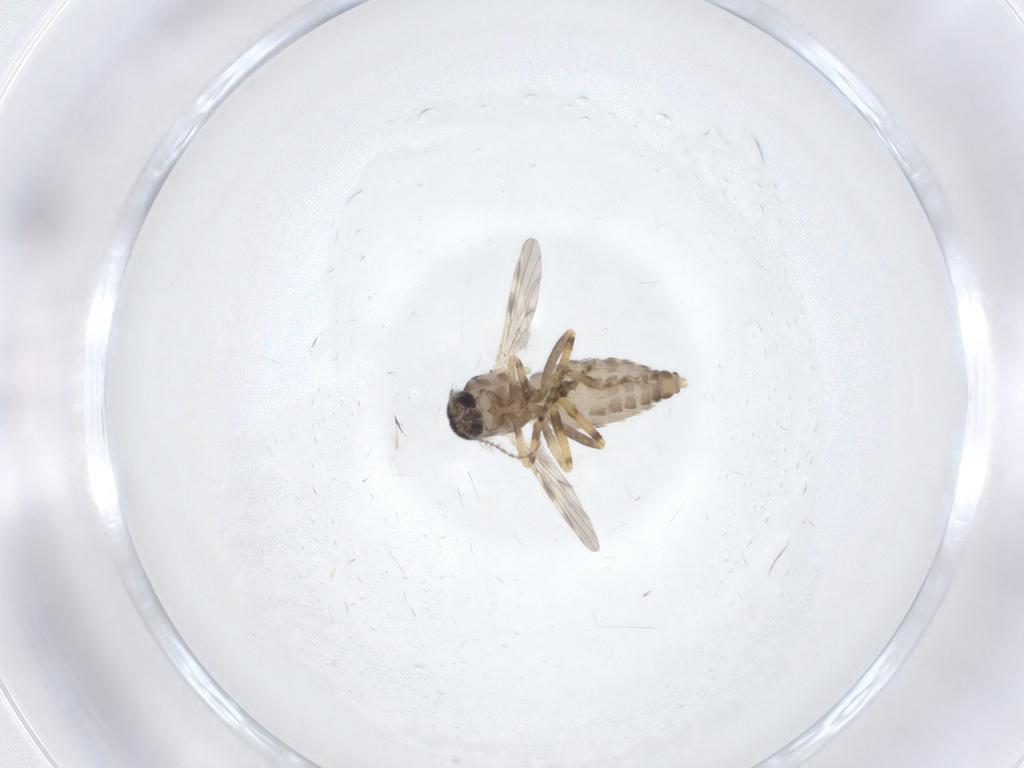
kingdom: Animalia
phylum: Arthropoda
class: Insecta
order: Diptera
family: Ceratopogonidae
